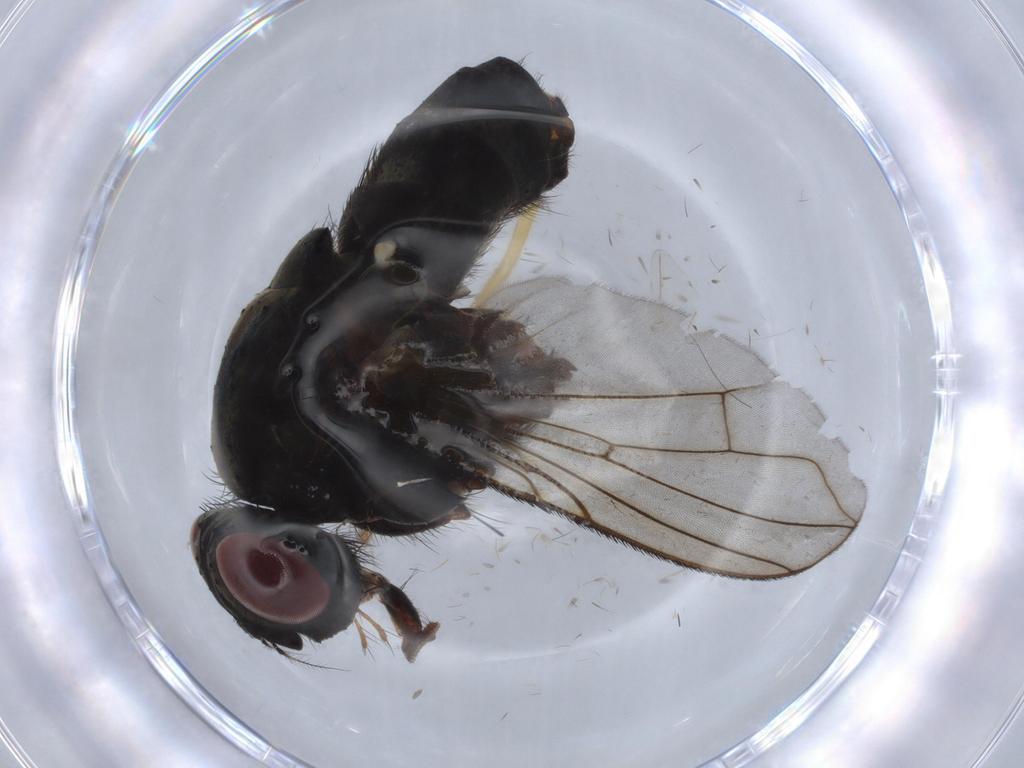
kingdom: Animalia
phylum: Arthropoda
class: Insecta
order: Diptera
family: Calliphoridae
